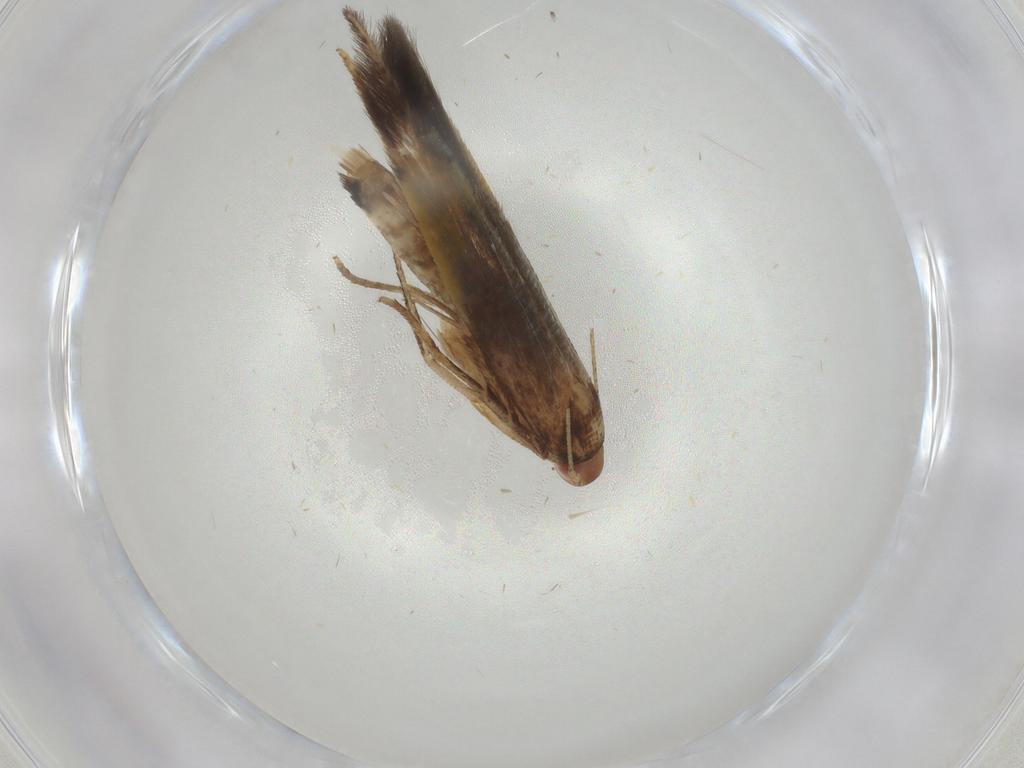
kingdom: Animalia
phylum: Arthropoda
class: Insecta
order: Lepidoptera
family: Cosmopterigidae
